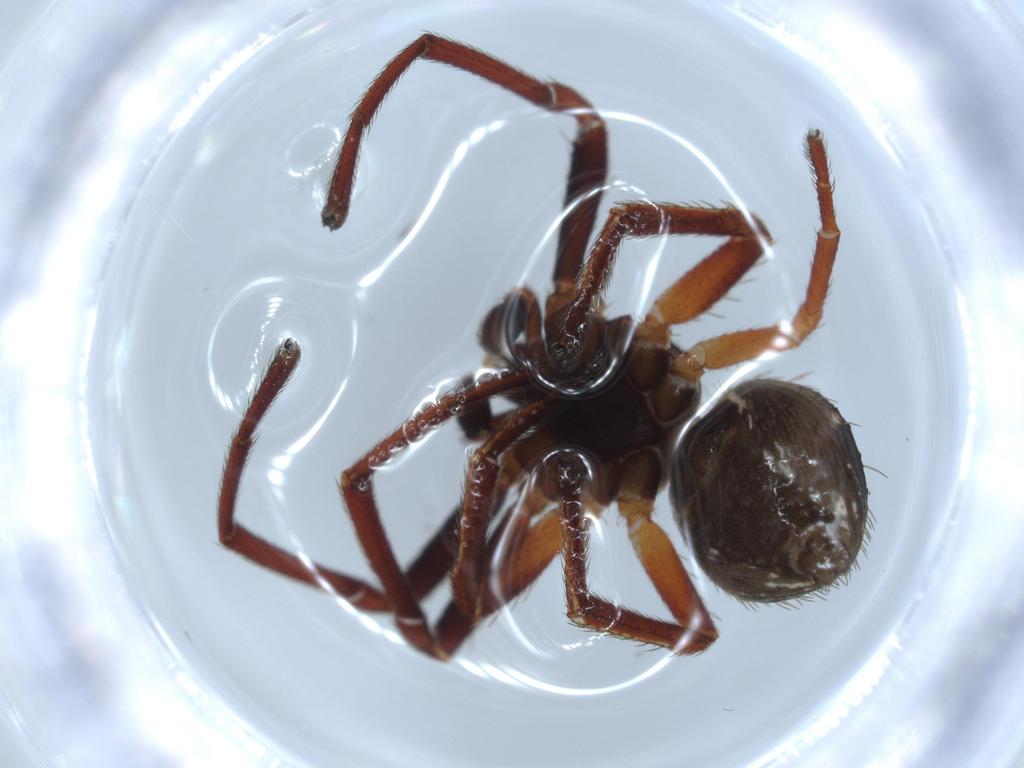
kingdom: Animalia
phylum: Arthropoda
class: Arachnida
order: Araneae
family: Thomisidae
